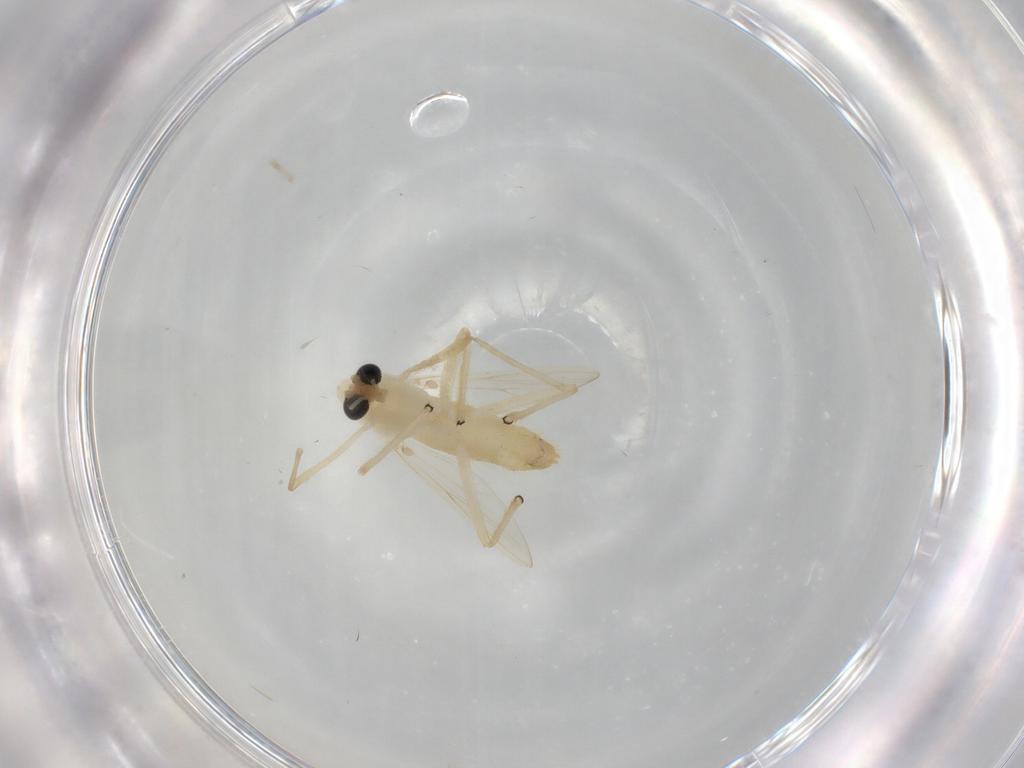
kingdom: Animalia
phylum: Arthropoda
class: Insecta
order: Diptera
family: Chironomidae
